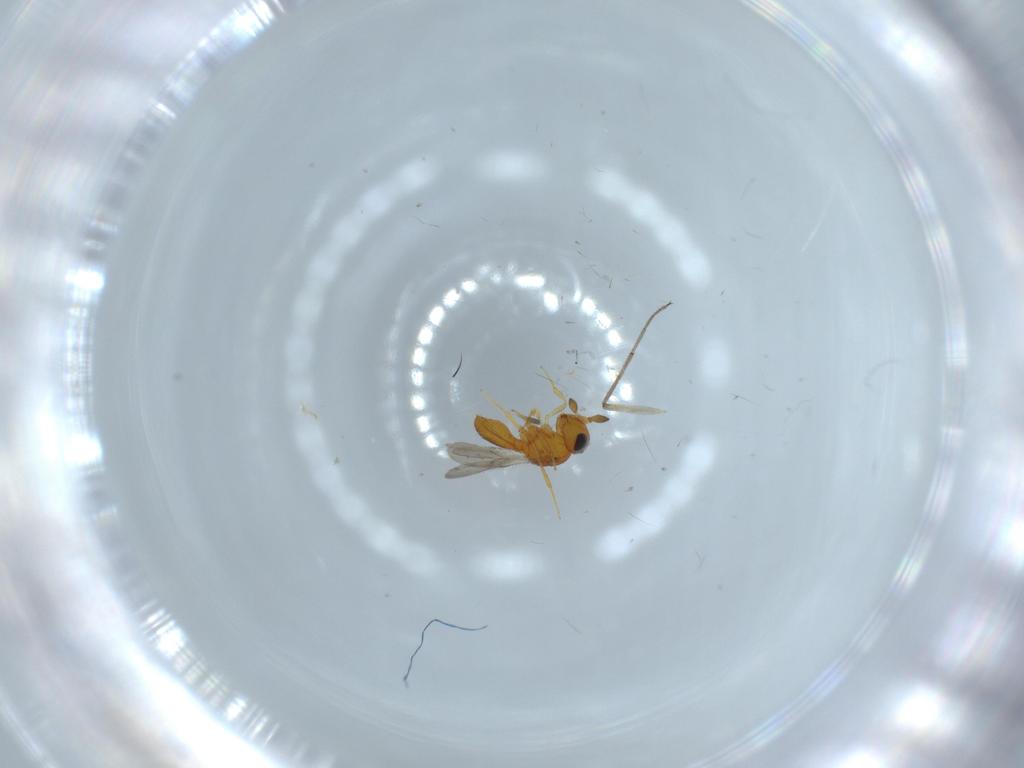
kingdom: Animalia
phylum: Arthropoda
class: Insecta
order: Hymenoptera
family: Scelionidae
